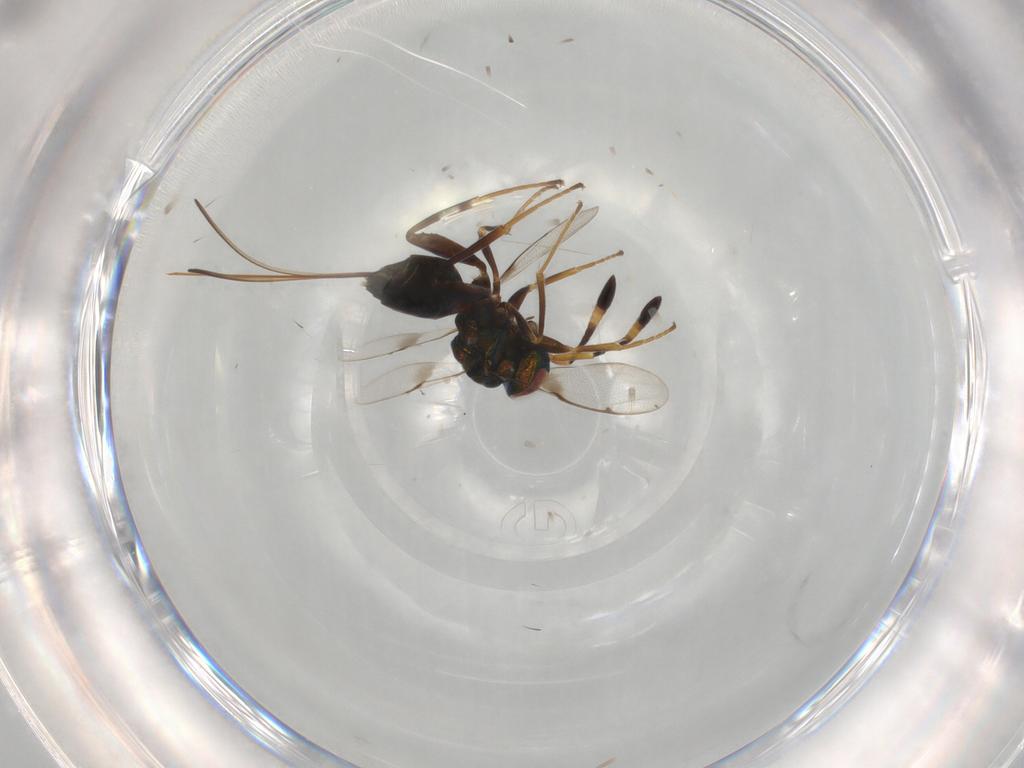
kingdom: Animalia
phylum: Arthropoda
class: Insecta
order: Hymenoptera
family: Torymidae
